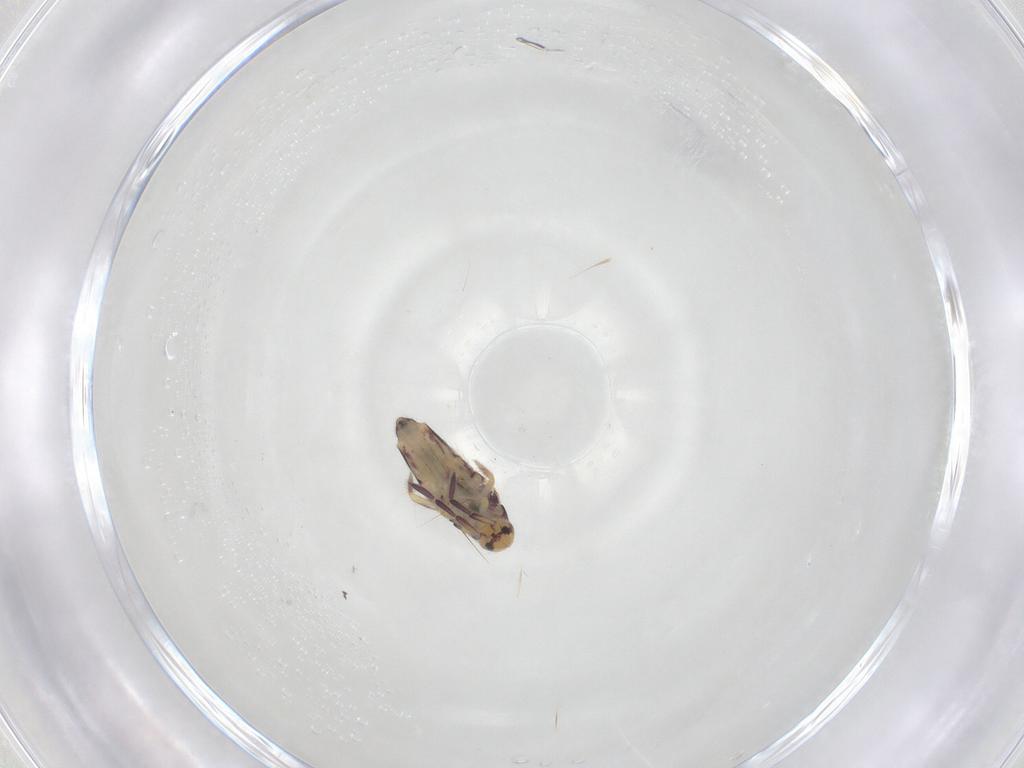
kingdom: Animalia
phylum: Arthropoda
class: Collembola
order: Entomobryomorpha
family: Entomobryidae
